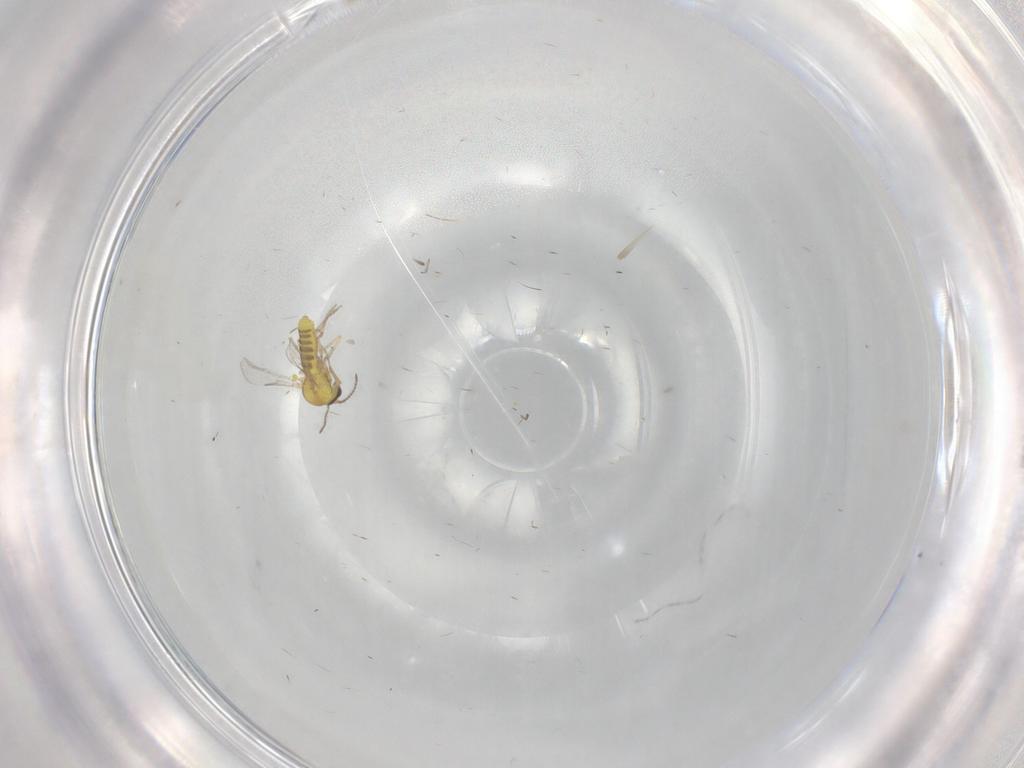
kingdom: Animalia
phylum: Arthropoda
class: Insecta
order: Diptera
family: Ceratopogonidae
